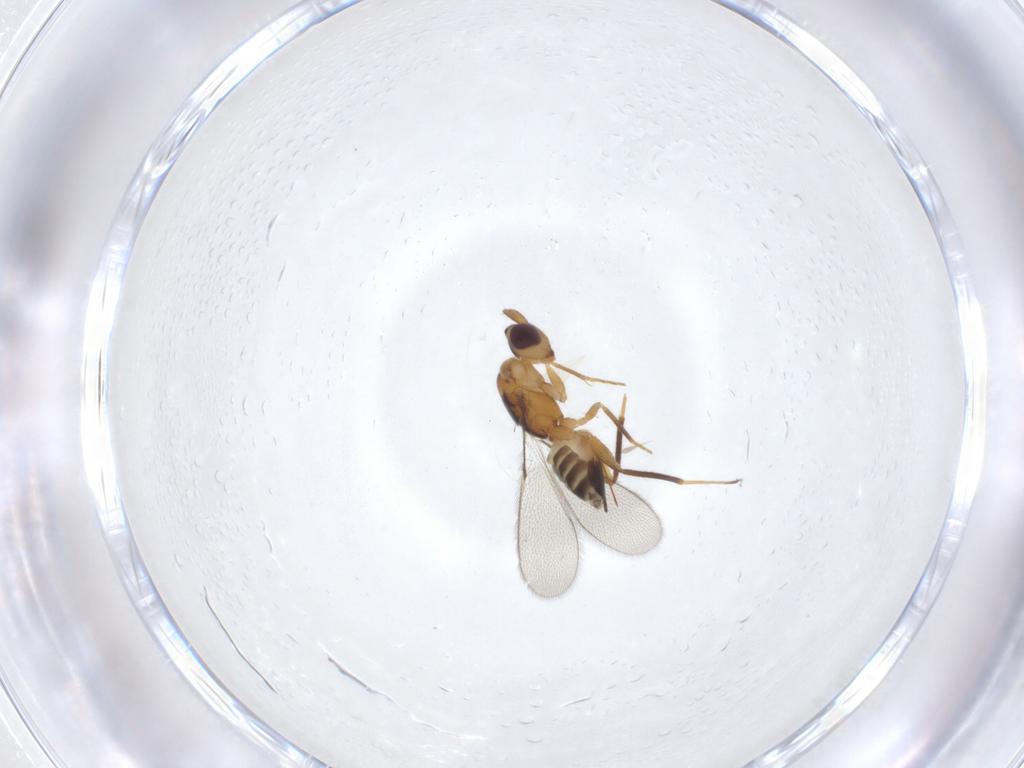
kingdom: Animalia
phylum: Arthropoda
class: Insecta
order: Hymenoptera
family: Mymaridae
